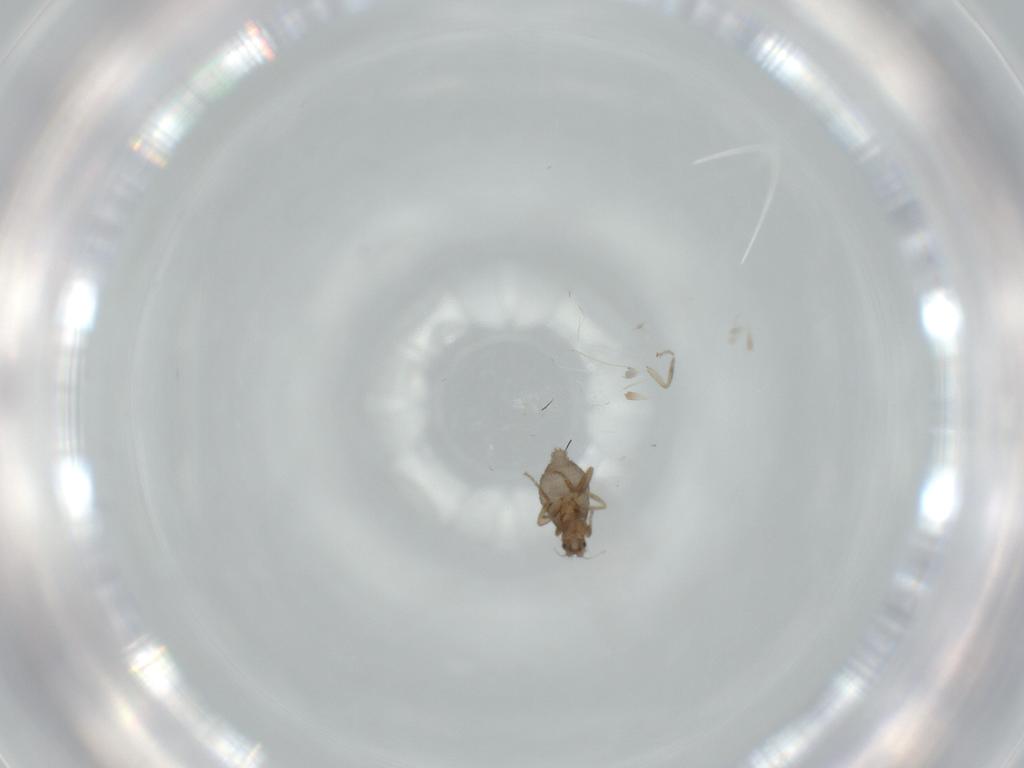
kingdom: Animalia
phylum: Arthropoda
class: Insecta
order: Diptera
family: Phoridae
